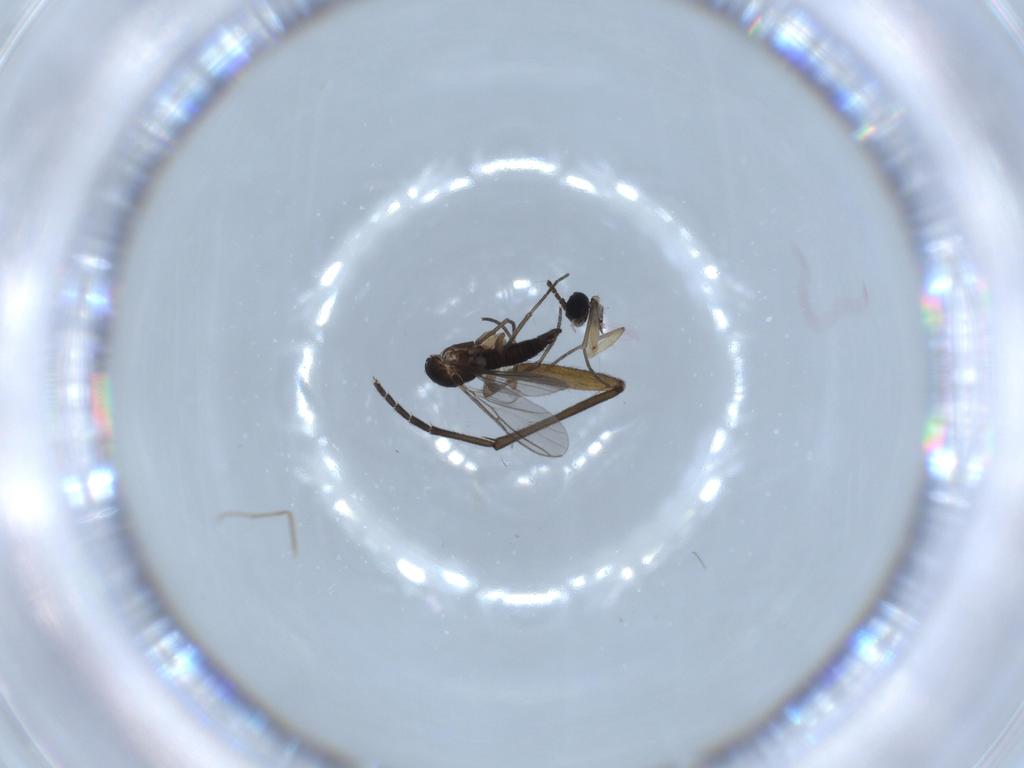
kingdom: Animalia
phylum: Arthropoda
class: Insecta
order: Diptera
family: Sciaridae
